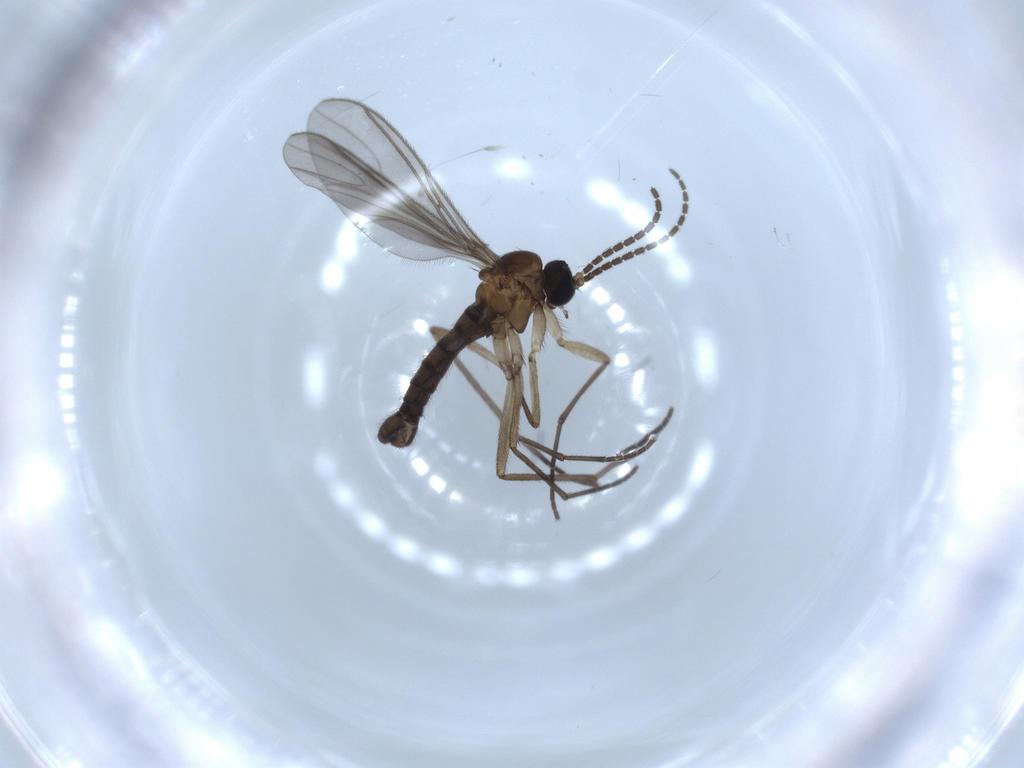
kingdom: Animalia
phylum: Arthropoda
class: Insecta
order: Diptera
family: Sciaridae
